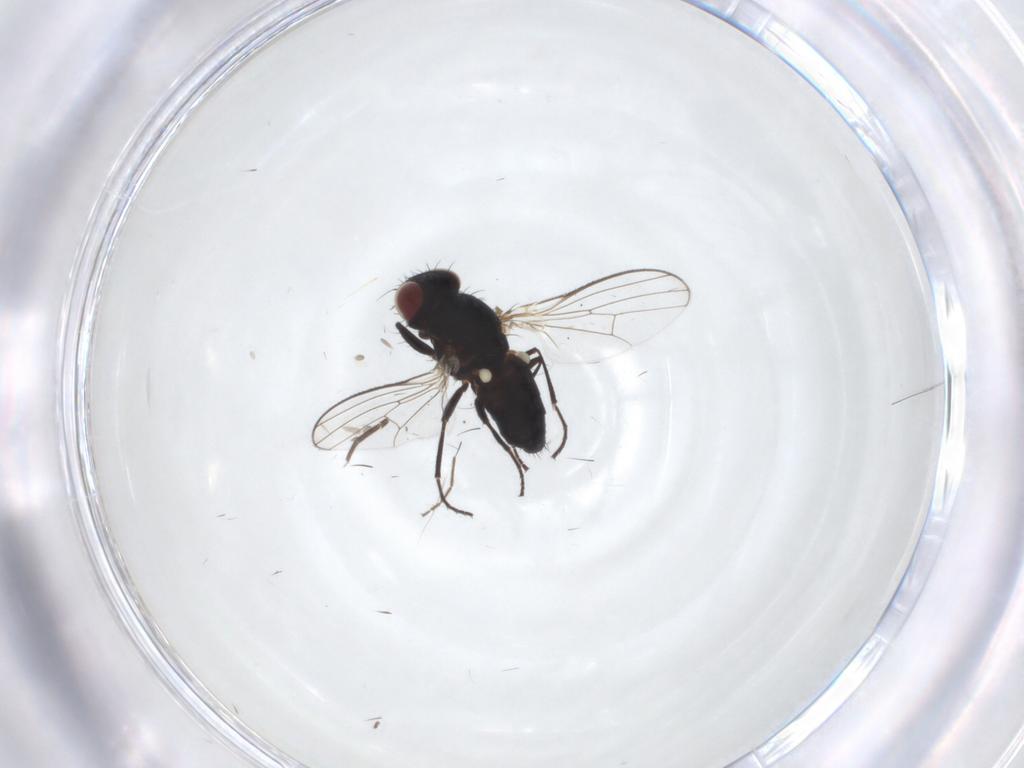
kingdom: Animalia
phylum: Arthropoda
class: Insecta
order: Diptera
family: Carnidae
